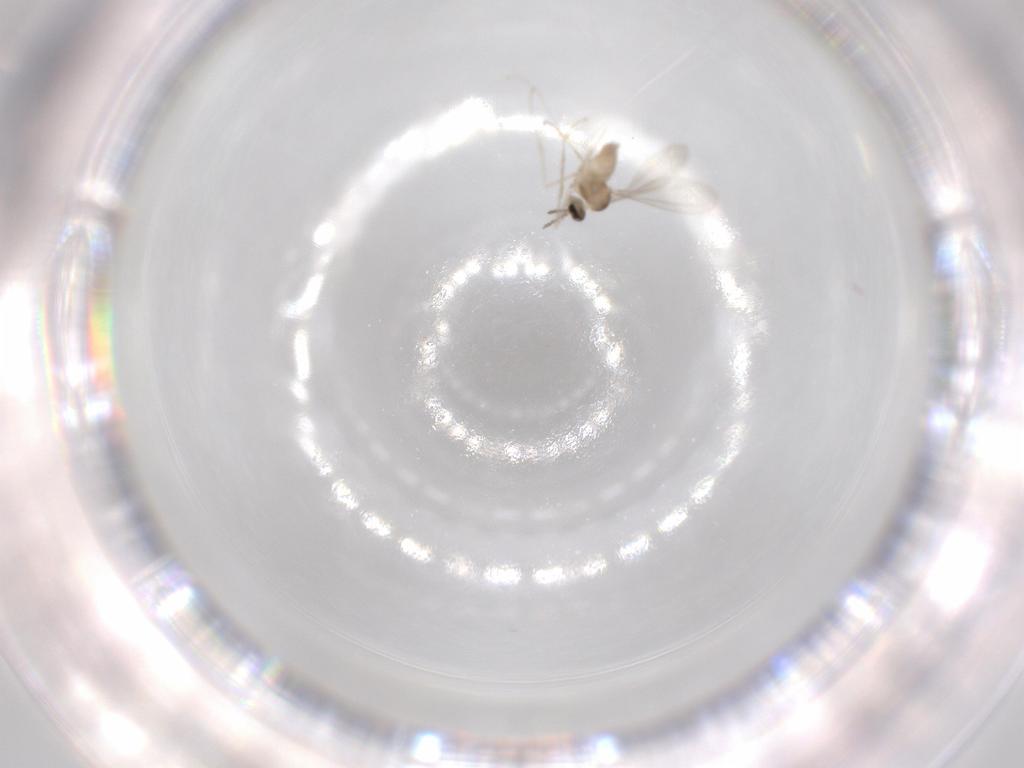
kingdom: Animalia
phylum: Arthropoda
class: Insecta
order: Diptera
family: Cecidomyiidae
